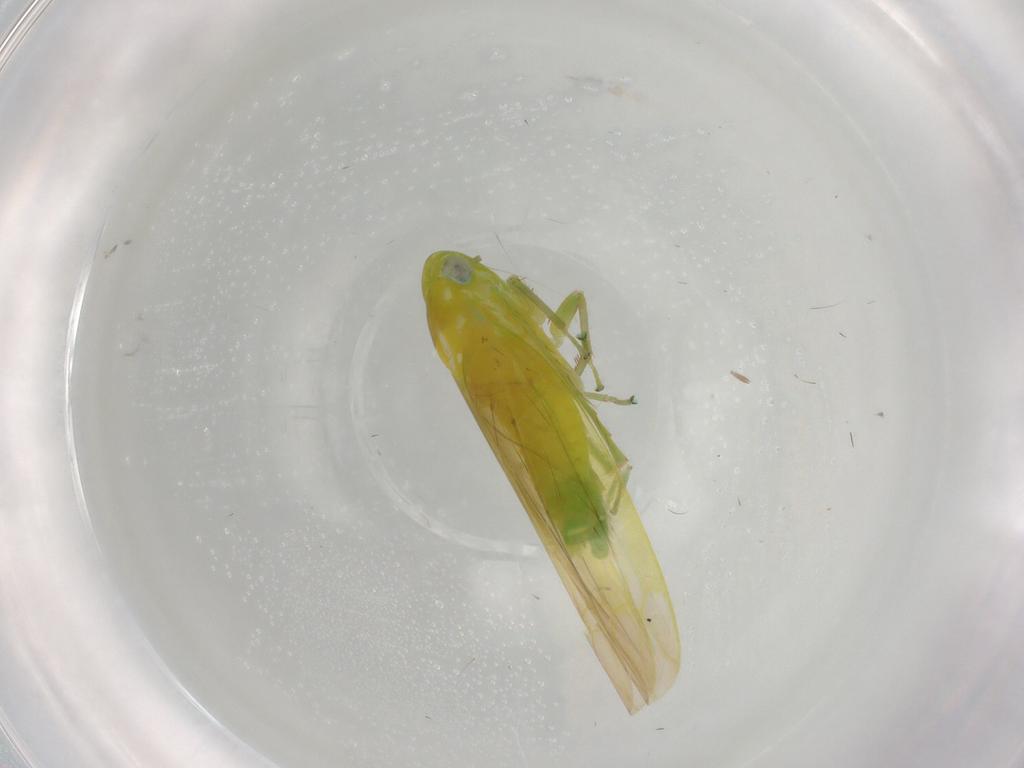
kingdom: Animalia
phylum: Arthropoda
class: Insecta
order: Hemiptera
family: Cicadellidae
